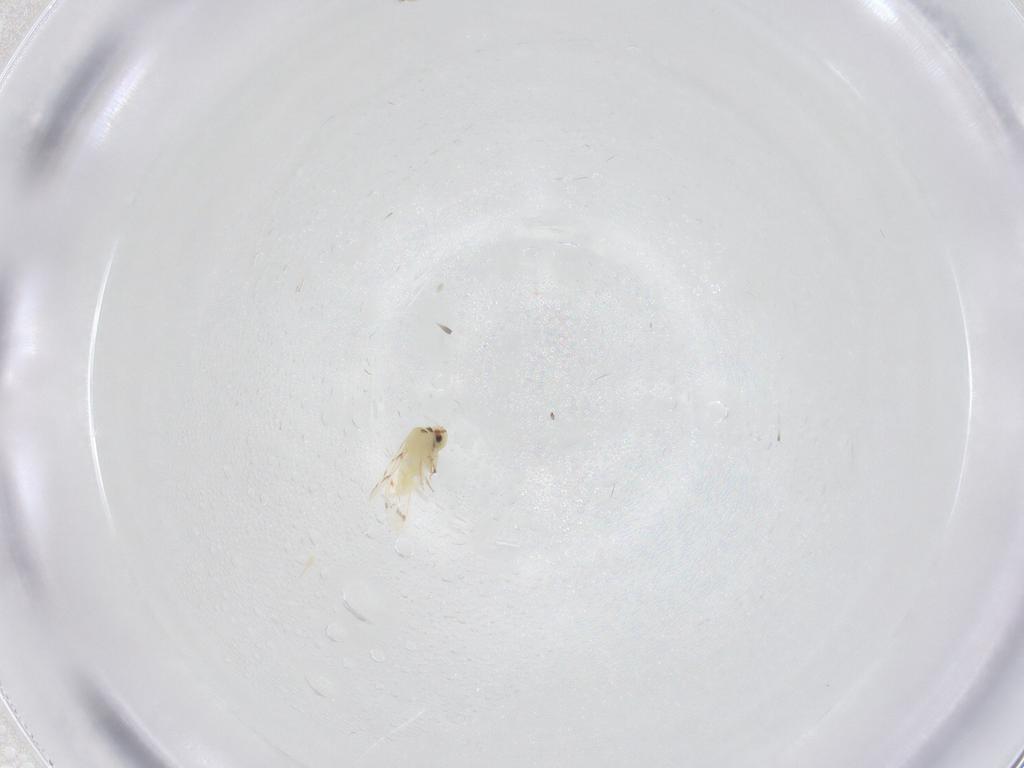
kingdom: Animalia
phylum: Arthropoda
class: Insecta
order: Hemiptera
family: Aleyrodidae
